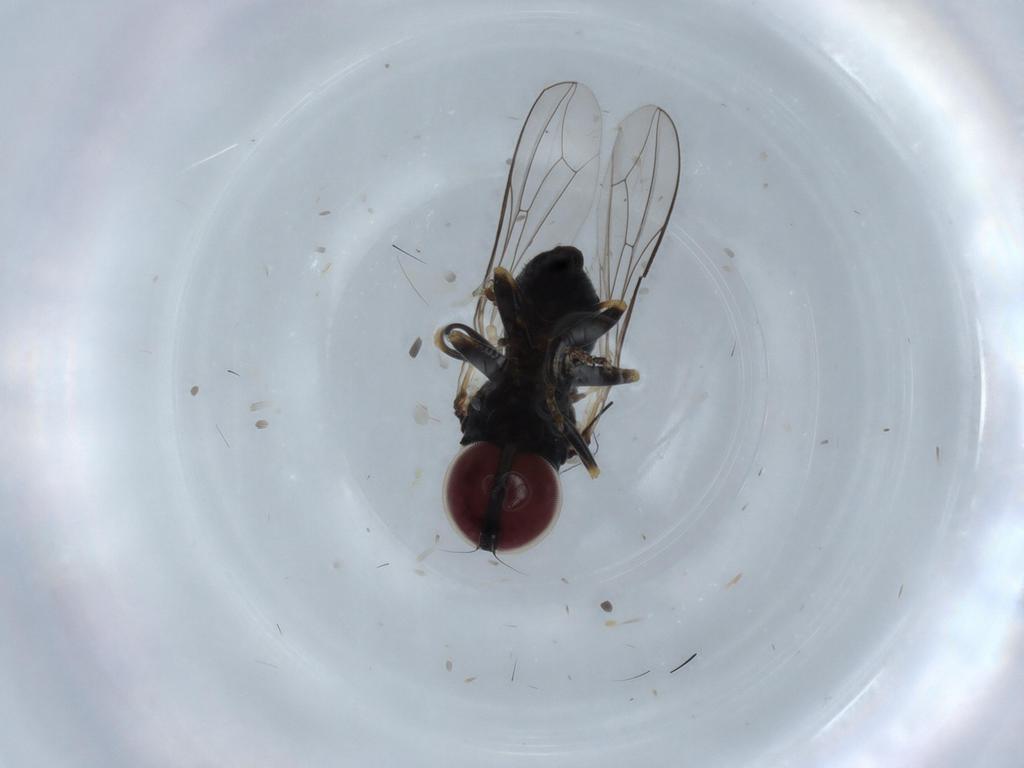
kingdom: Animalia
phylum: Arthropoda
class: Insecta
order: Diptera
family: Pipunculidae
